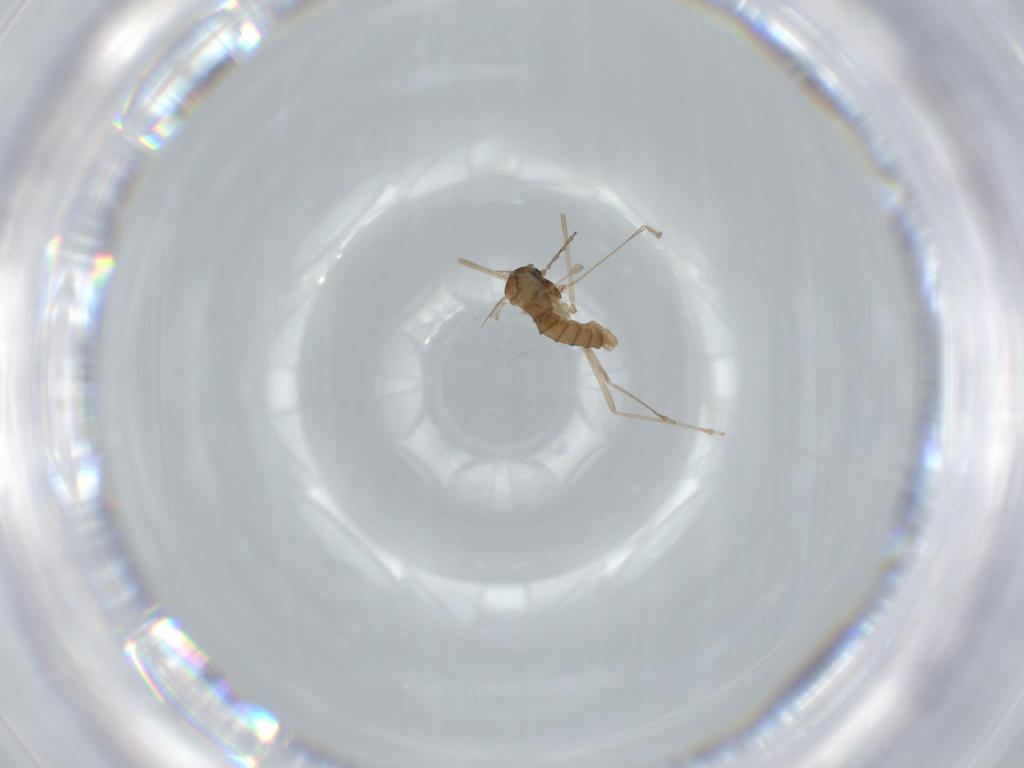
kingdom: Animalia
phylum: Arthropoda
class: Insecta
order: Diptera
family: Cecidomyiidae
